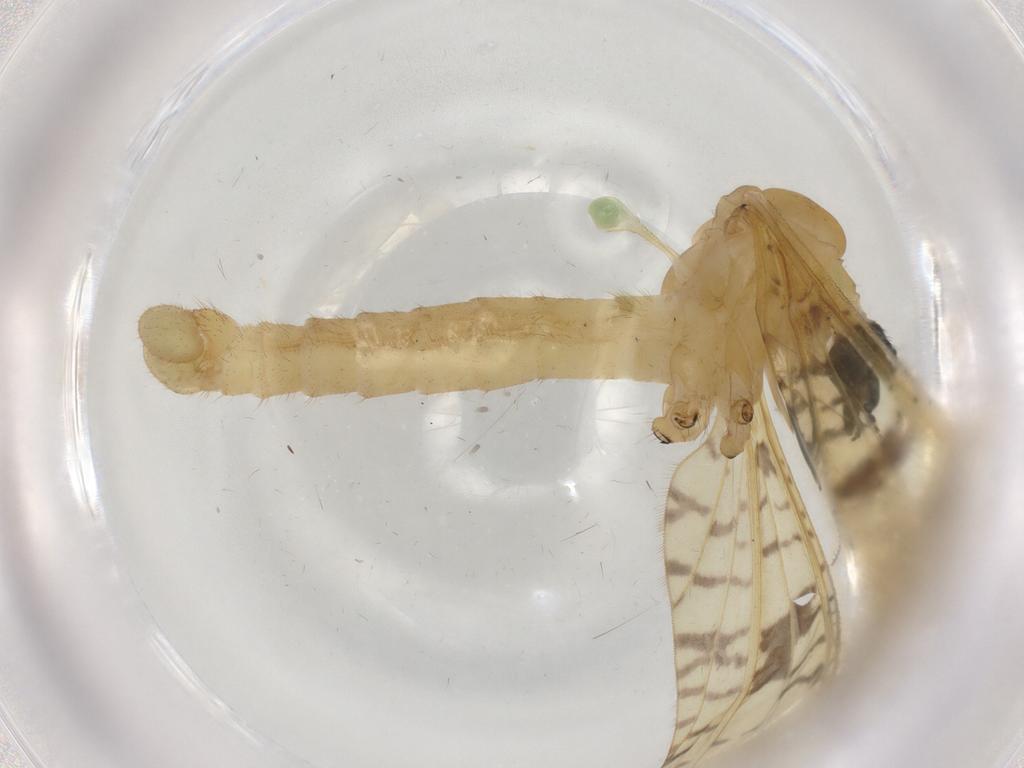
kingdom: Animalia
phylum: Arthropoda
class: Insecta
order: Diptera
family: Limoniidae
